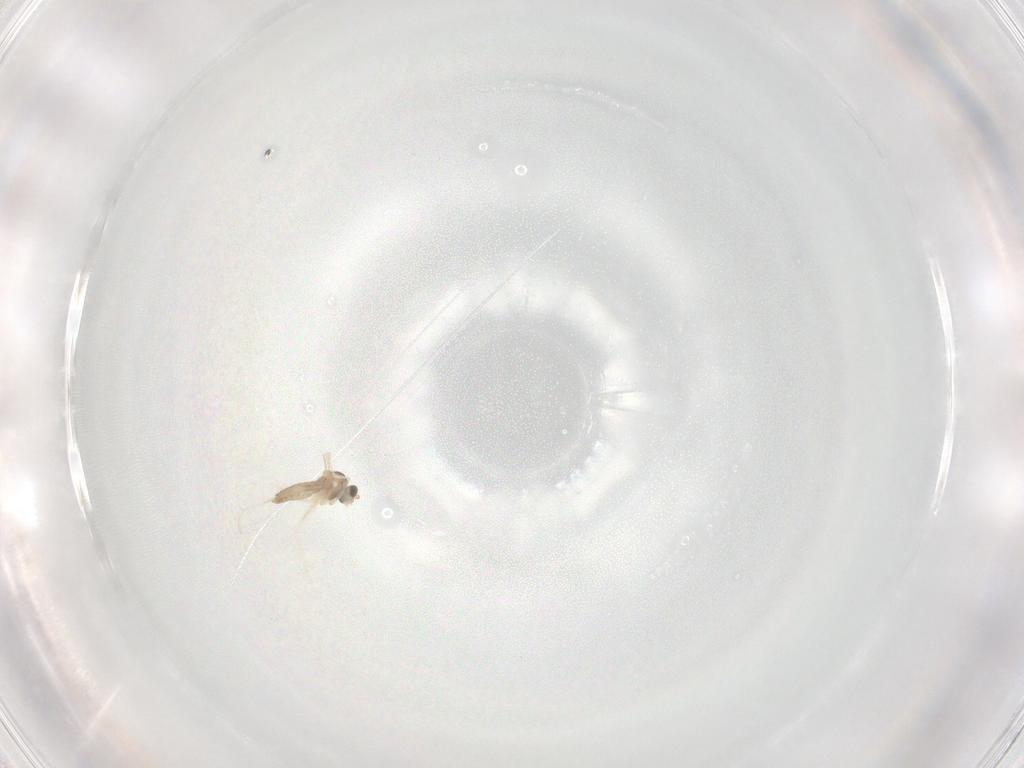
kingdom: Animalia
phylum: Arthropoda
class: Insecta
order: Diptera
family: Cecidomyiidae
